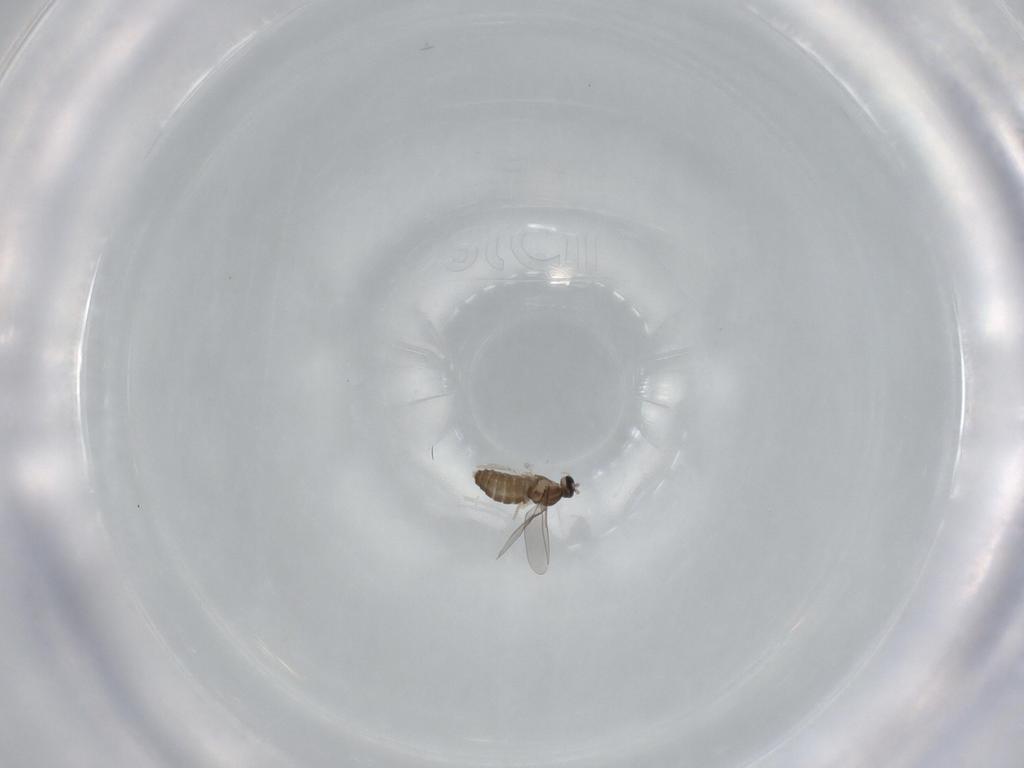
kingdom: Animalia
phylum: Arthropoda
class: Insecta
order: Diptera
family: Cecidomyiidae
